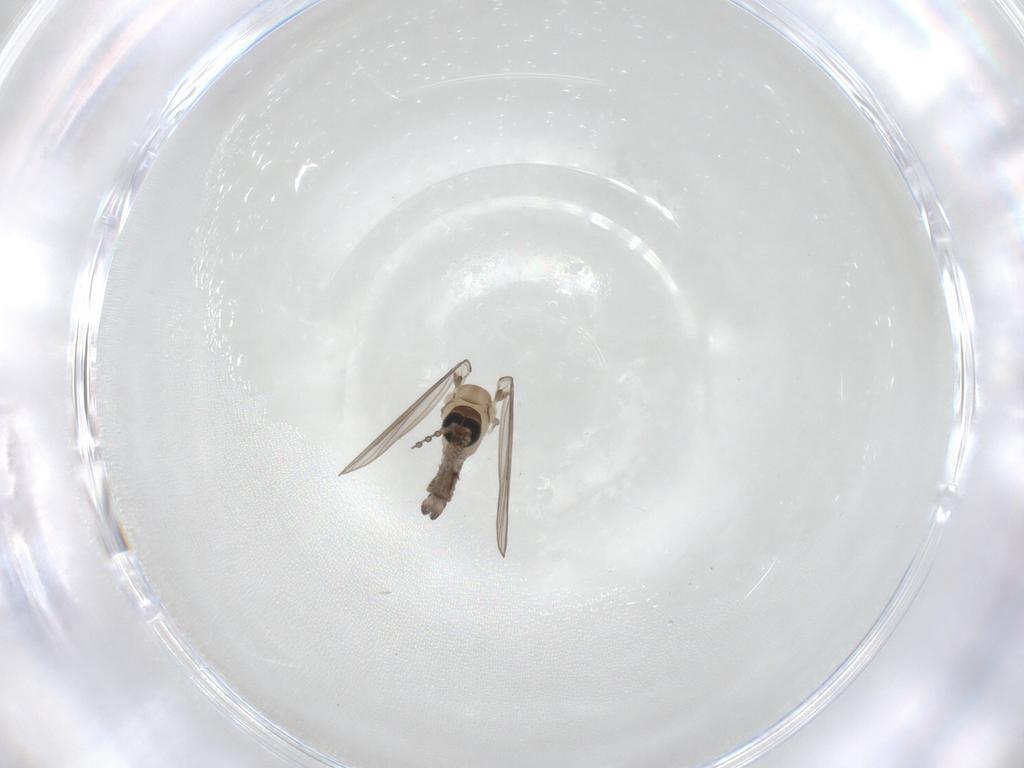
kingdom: Animalia
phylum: Arthropoda
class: Insecta
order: Diptera
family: Psychodidae
